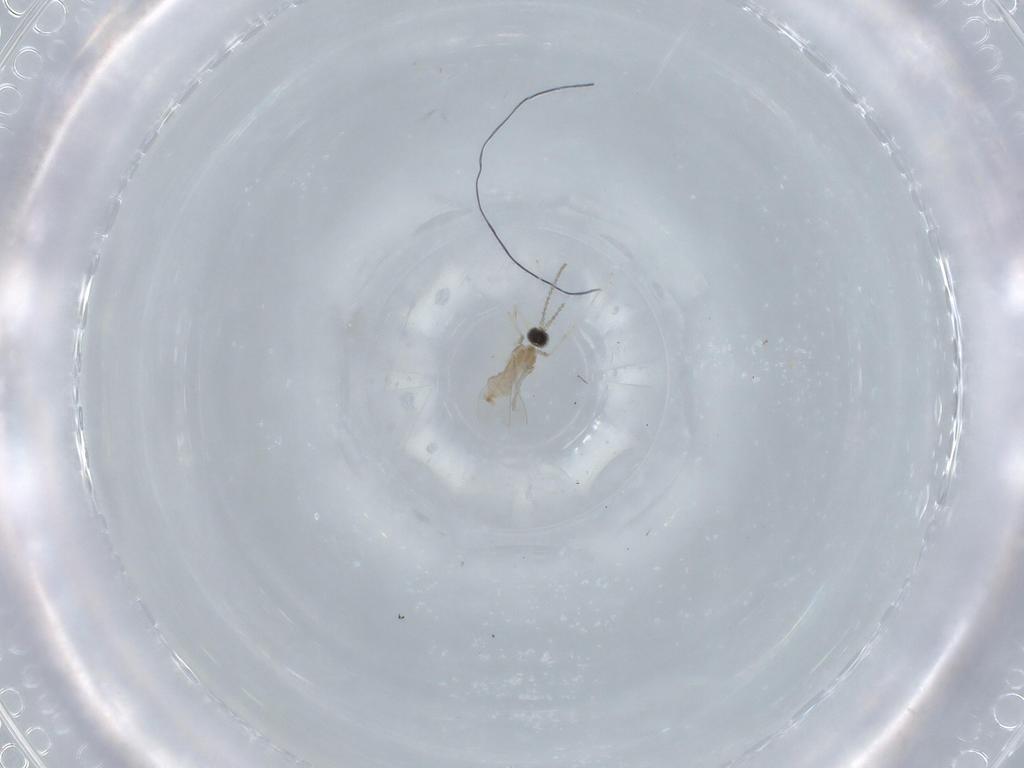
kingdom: Animalia
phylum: Arthropoda
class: Insecta
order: Diptera
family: Cecidomyiidae
